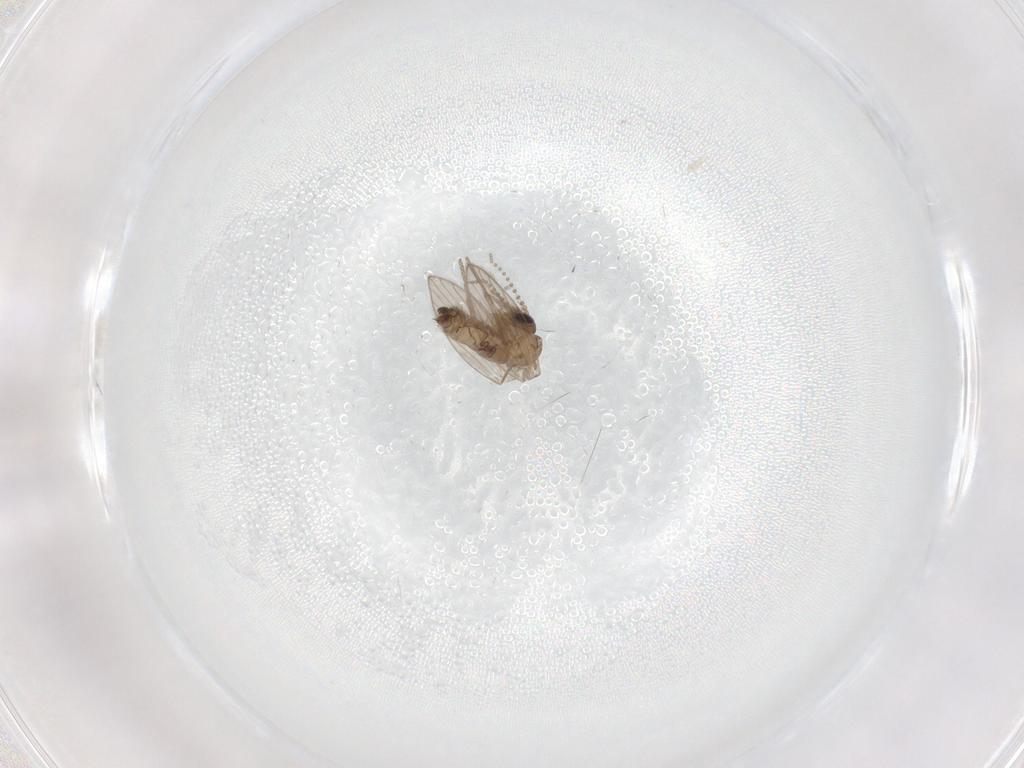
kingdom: Animalia
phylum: Arthropoda
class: Insecta
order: Diptera
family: Psychodidae
